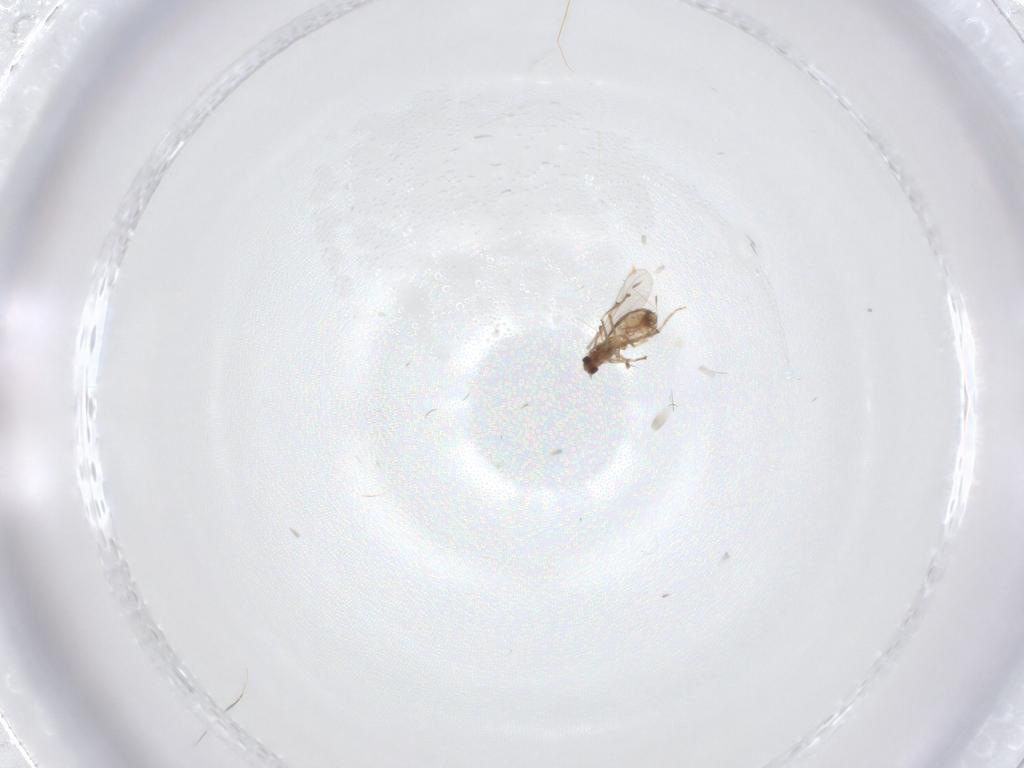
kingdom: Animalia
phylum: Arthropoda
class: Insecta
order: Diptera
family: Chironomidae
